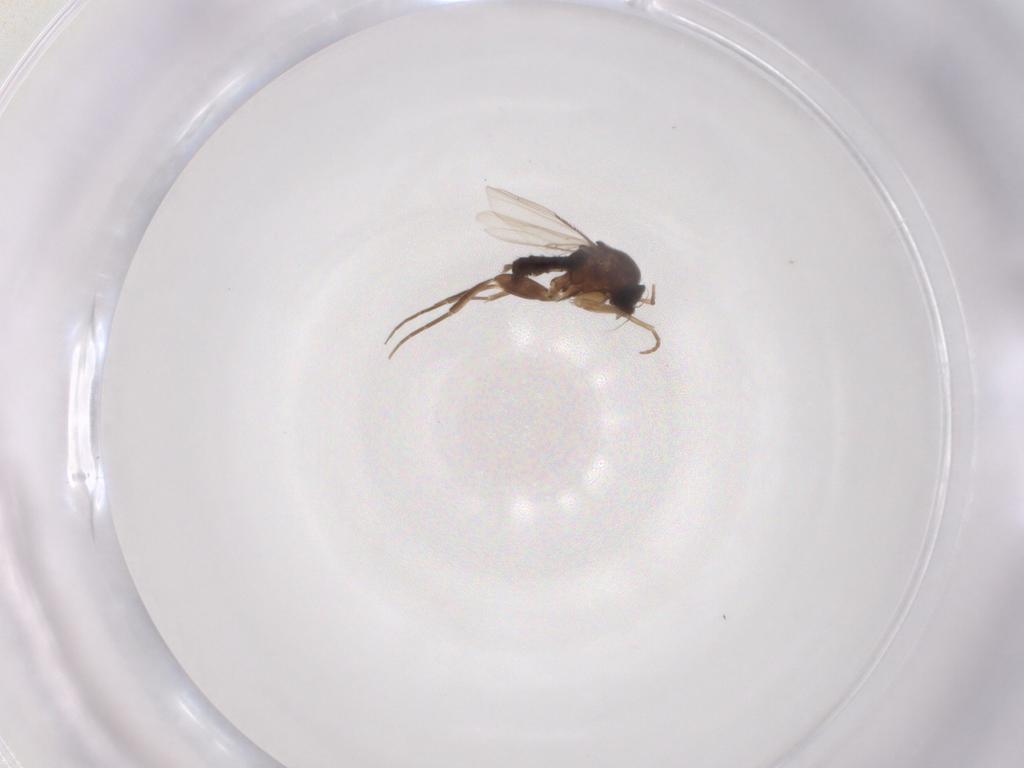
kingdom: Animalia
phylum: Arthropoda
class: Insecta
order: Diptera
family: Phoridae
